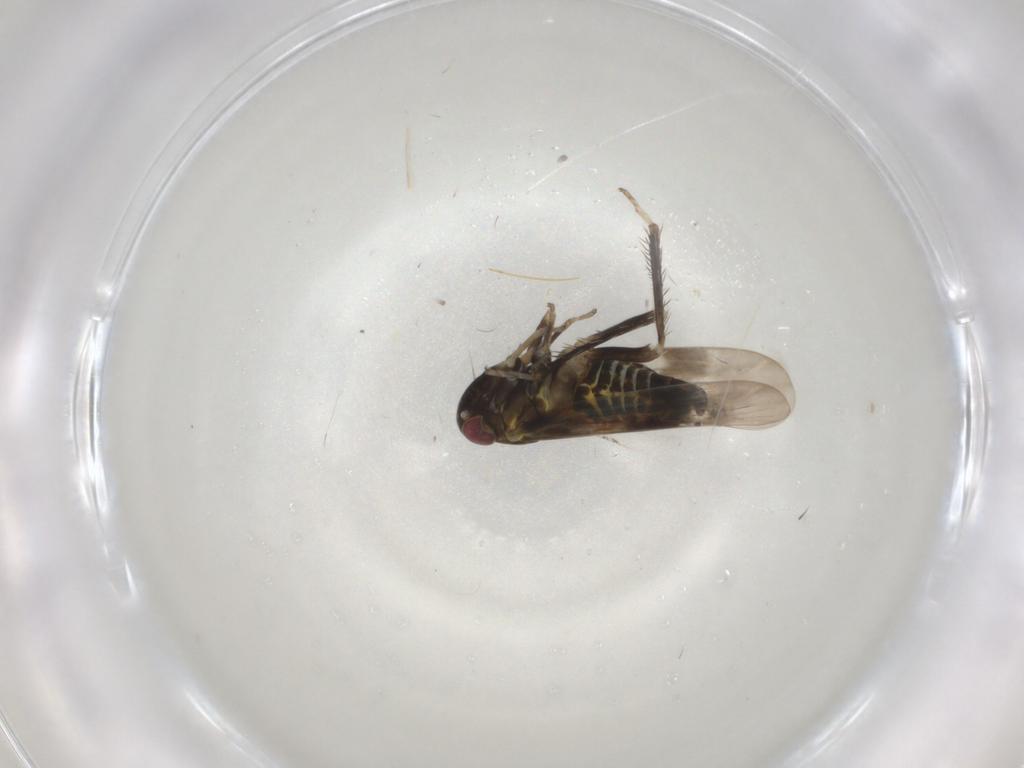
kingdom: Animalia
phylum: Arthropoda
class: Insecta
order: Hemiptera
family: Cicadellidae
